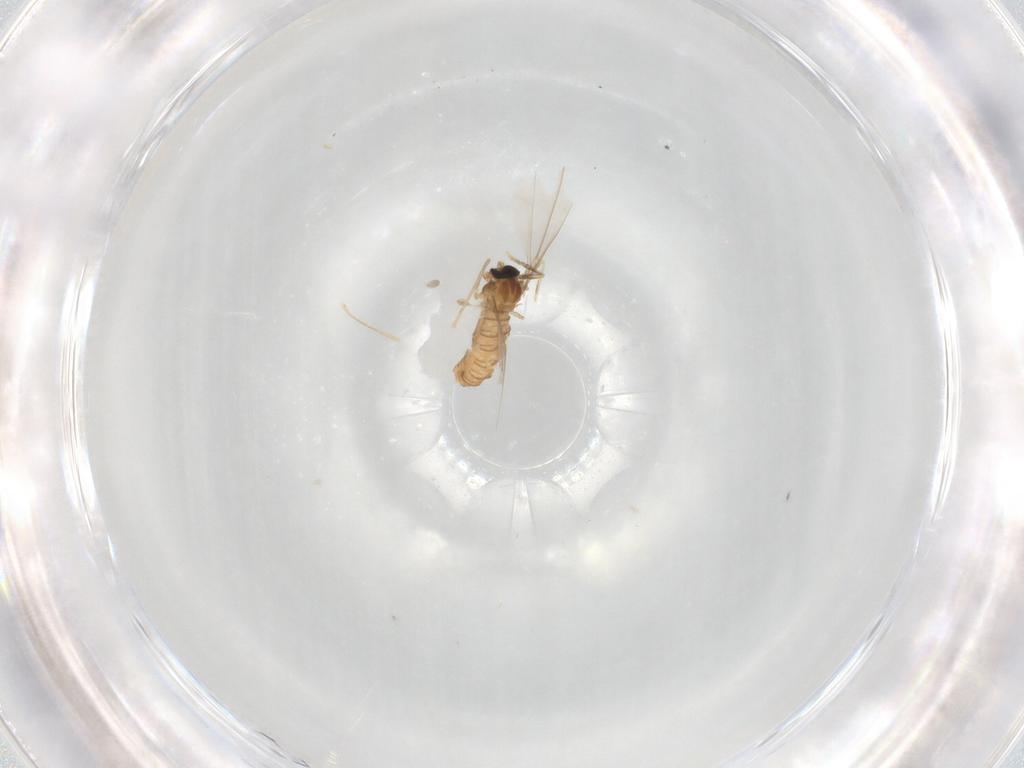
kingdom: Animalia
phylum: Arthropoda
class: Insecta
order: Diptera
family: Cecidomyiidae
